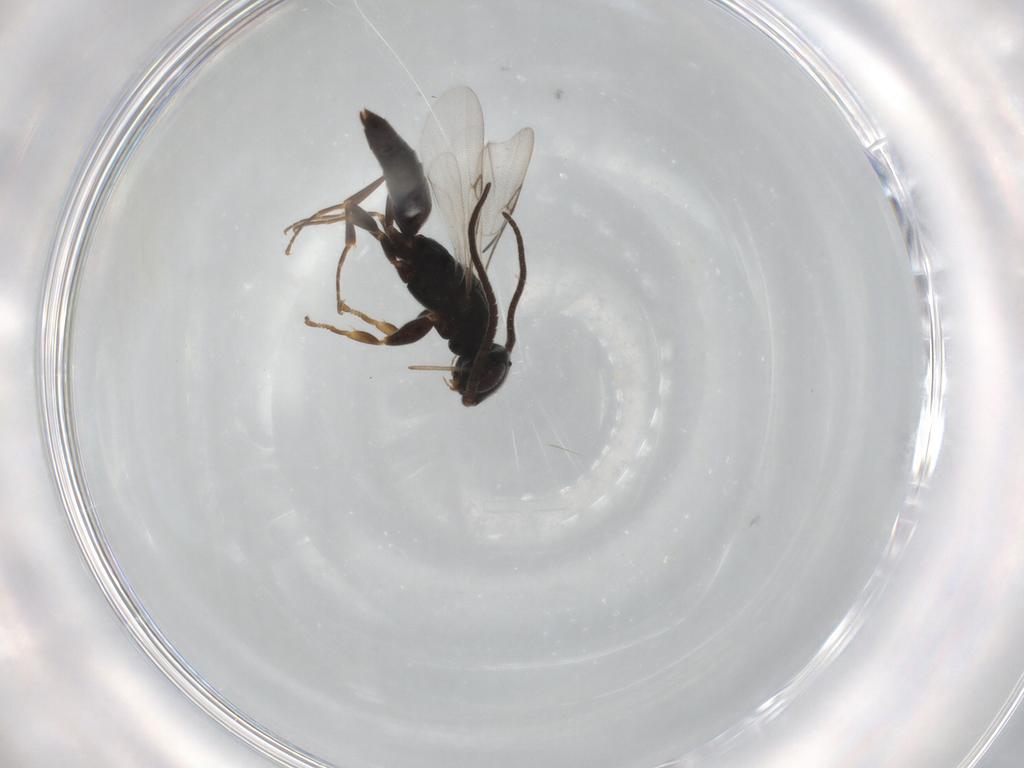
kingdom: Animalia
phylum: Arthropoda
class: Insecta
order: Hymenoptera
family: Sclerogibbidae
